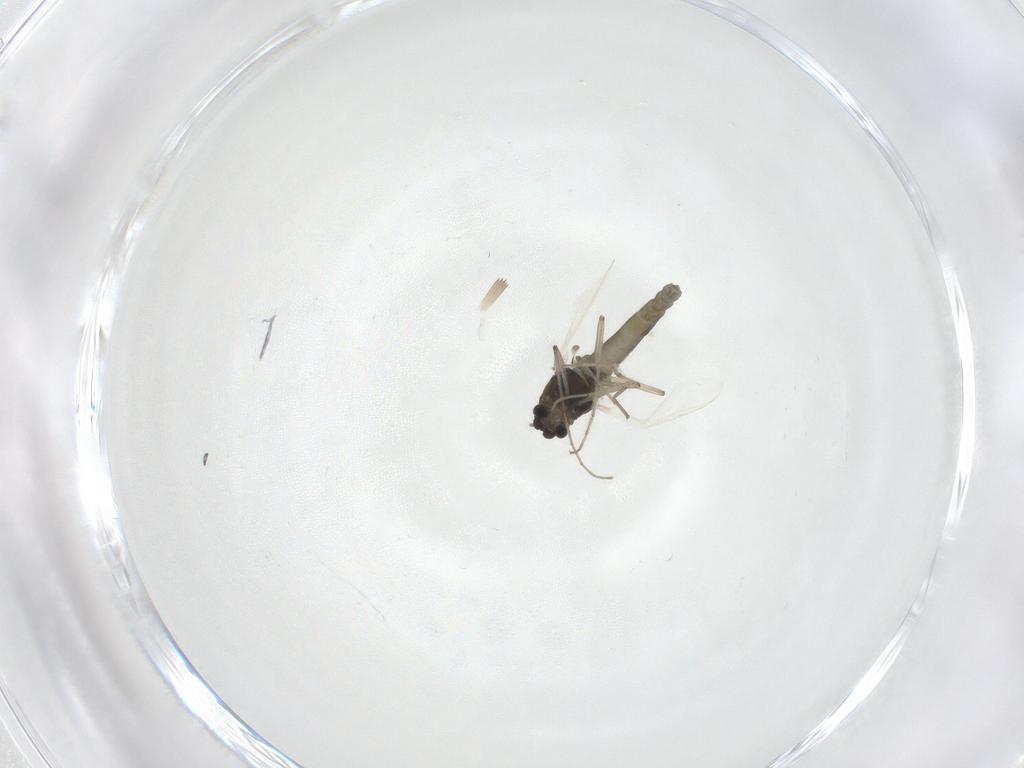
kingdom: Animalia
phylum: Arthropoda
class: Insecta
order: Diptera
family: Psychodidae
